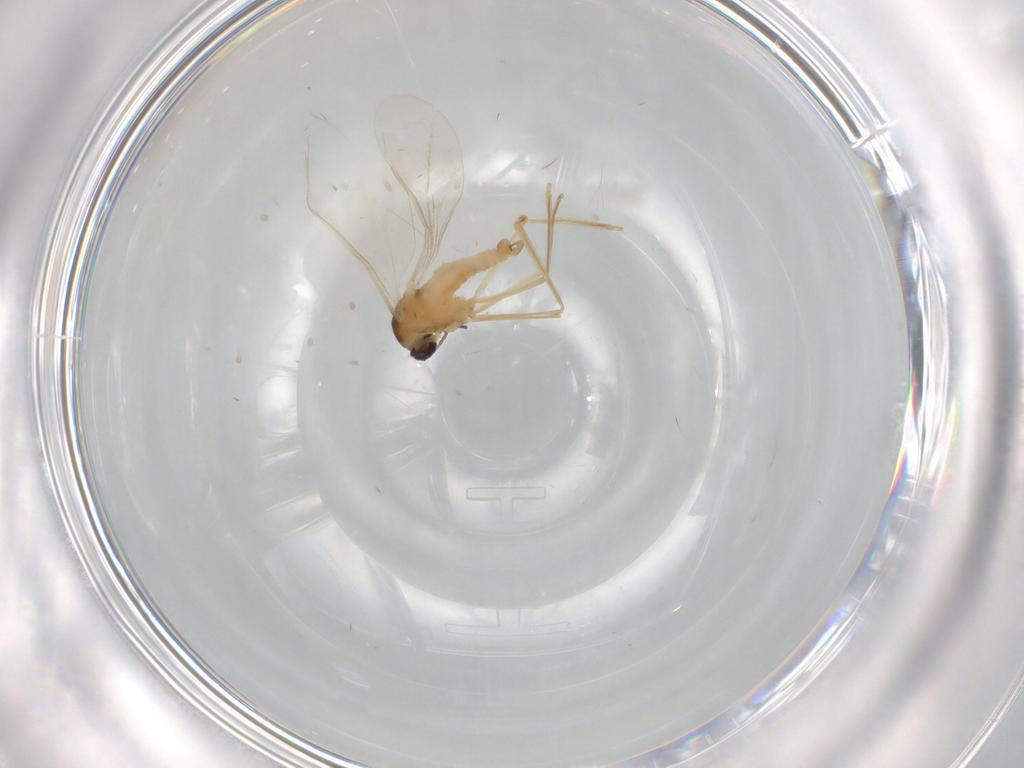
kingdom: Animalia
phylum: Arthropoda
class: Insecta
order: Diptera
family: Cecidomyiidae
